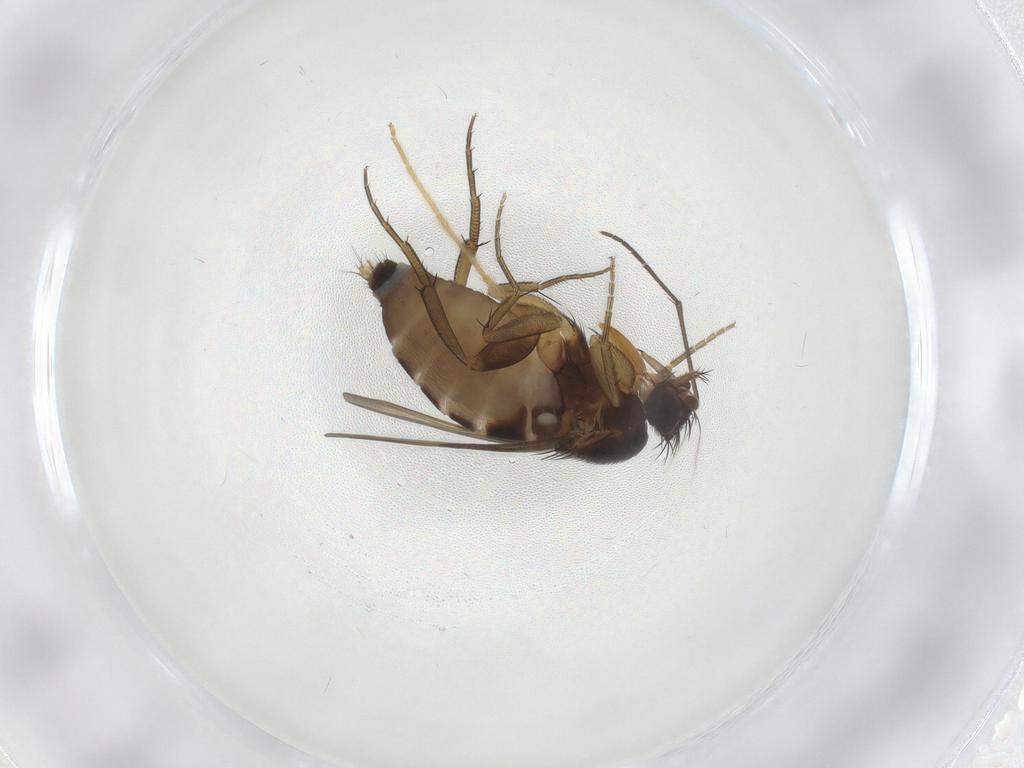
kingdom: Animalia
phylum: Arthropoda
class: Insecta
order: Diptera
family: Phoridae
